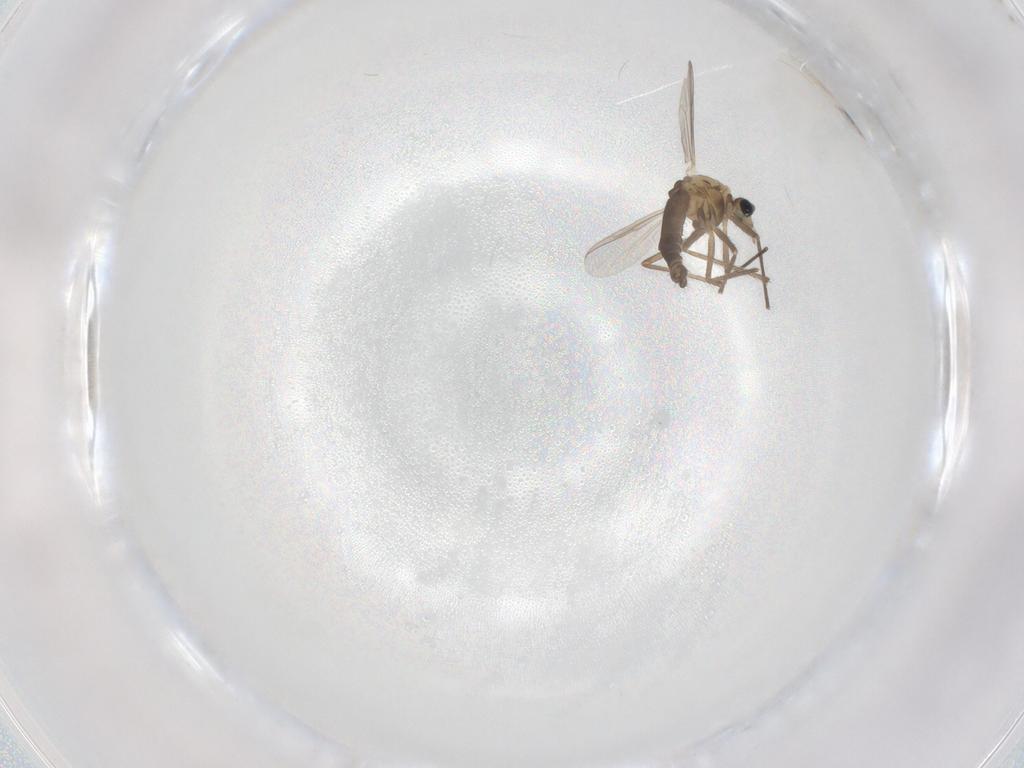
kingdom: Animalia
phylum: Arthropoda
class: Insecta
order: Diptera
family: Chironomidae
